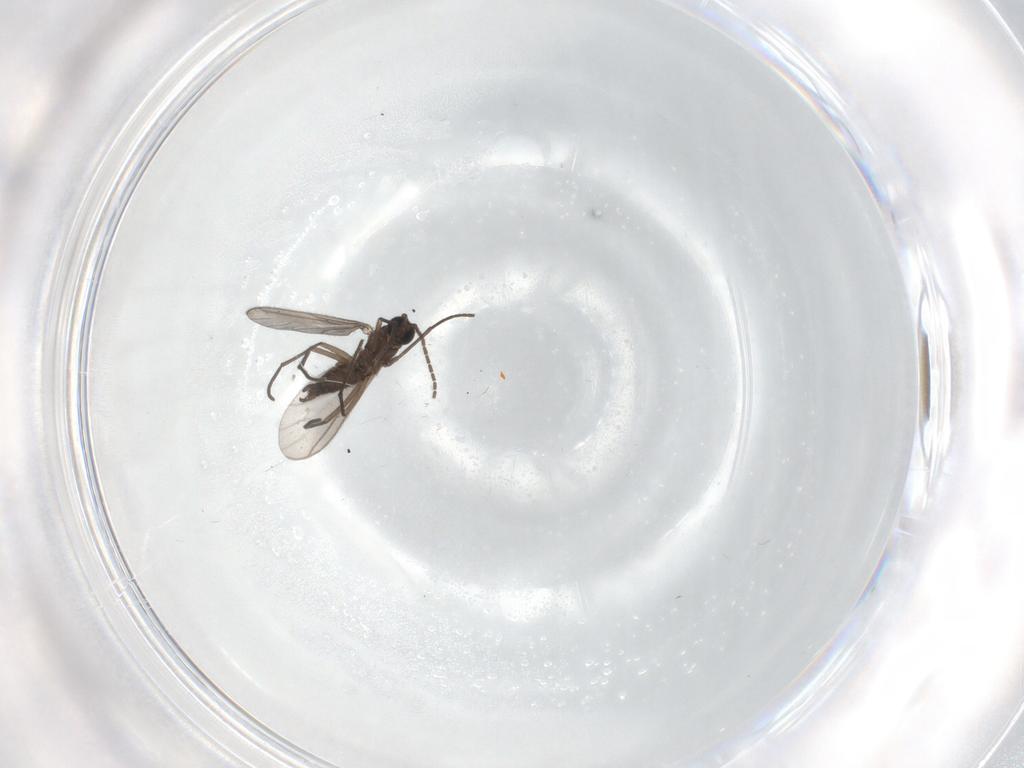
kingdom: Animalia
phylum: Arthropoda
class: Insecta
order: Diptera
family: Sciaridae
